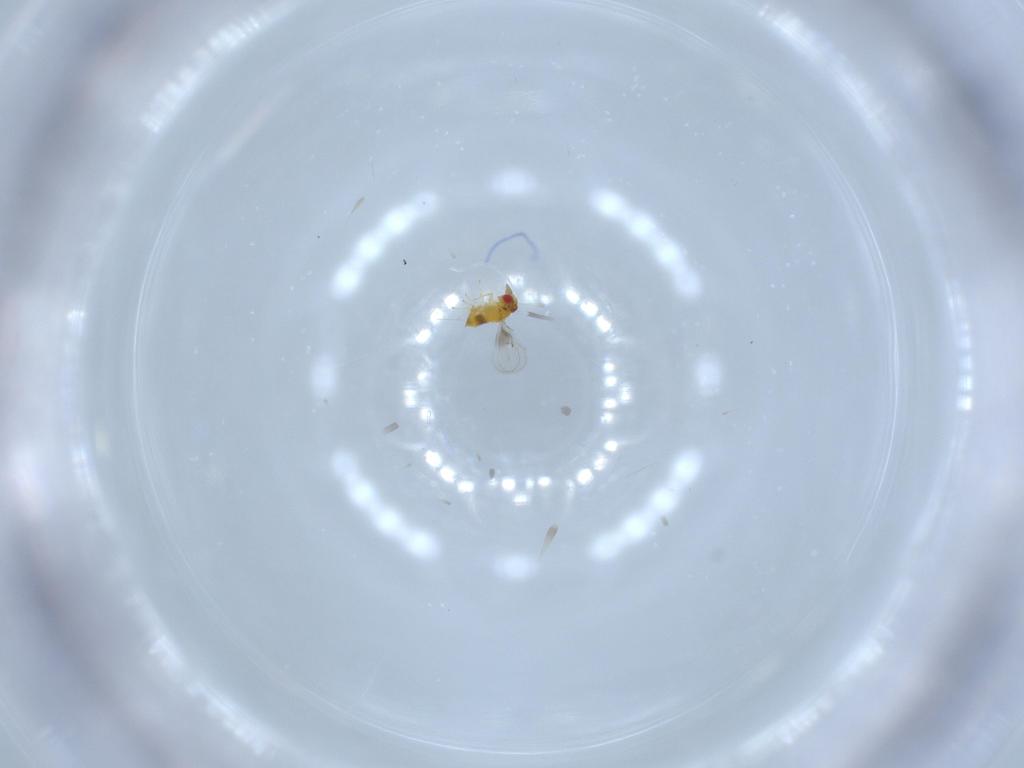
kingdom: Animalia
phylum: Arthropoda
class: Insecta
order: Hymenoptera
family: Trichogrammatidae
